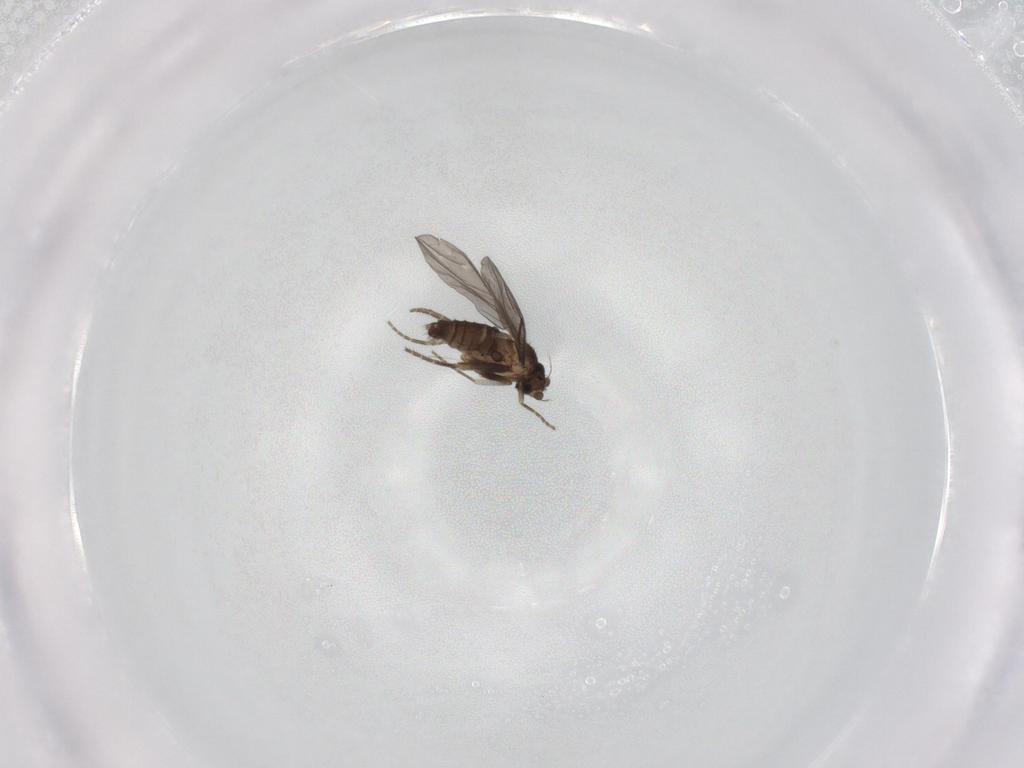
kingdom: Animalia
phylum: Arthropoda
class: Insecta
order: Diptera
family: Phoridae
